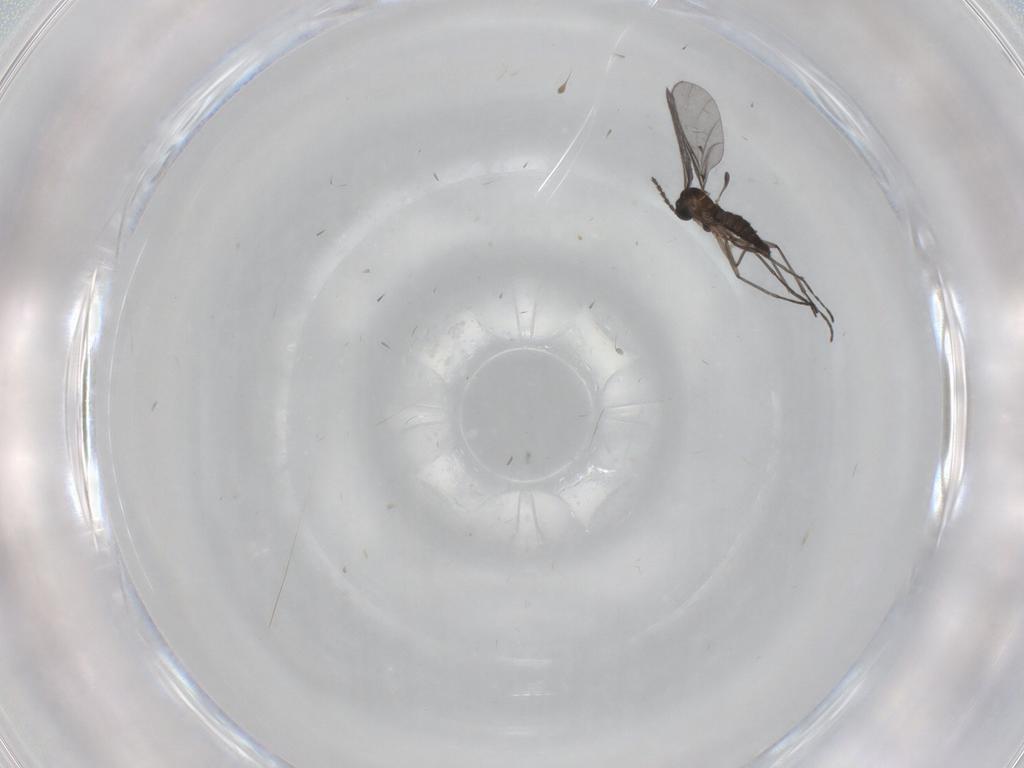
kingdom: Animalia
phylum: Arthropoda
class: Insecta
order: Diptera
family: Sciaridae
